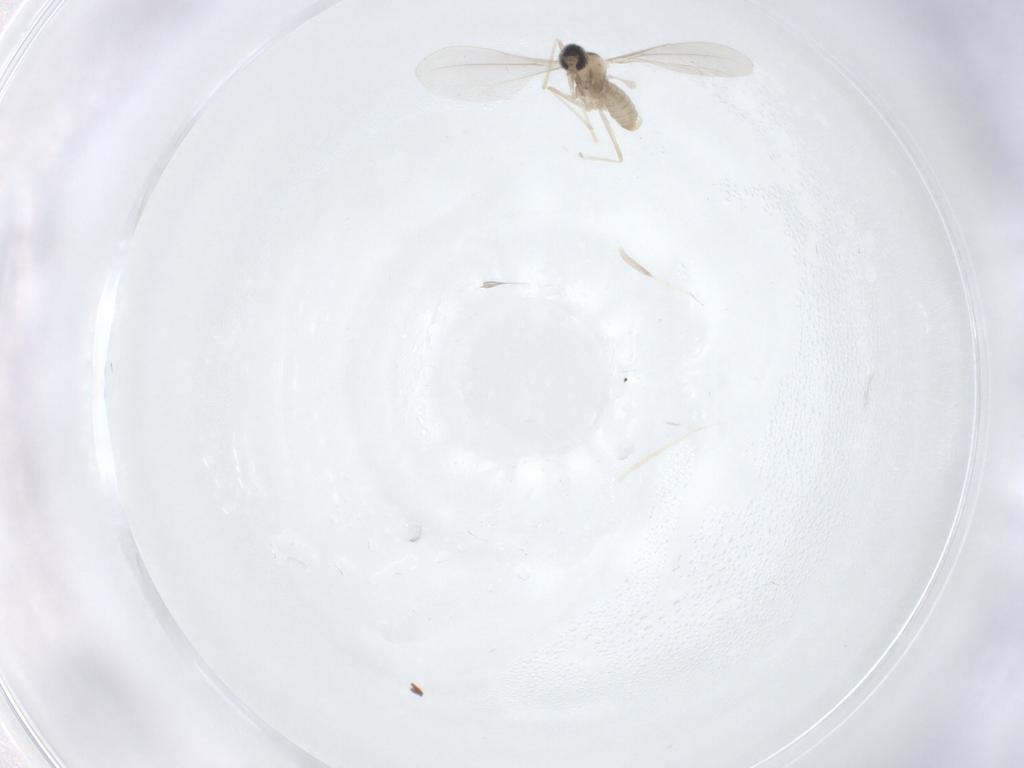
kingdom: Animalia
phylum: Arthropoda
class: Insecta
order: Diptera
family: Cecidomyiidae
